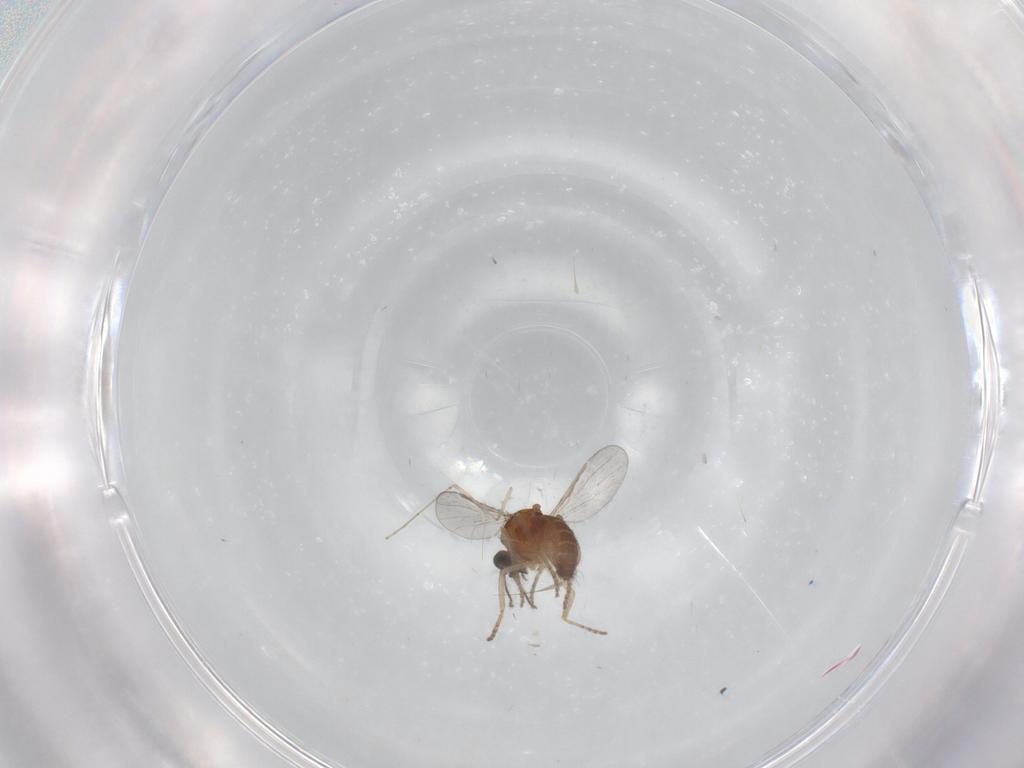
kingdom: Animalia
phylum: Arthropoda
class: Insecta
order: Diptera
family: Ceratopogonidae
